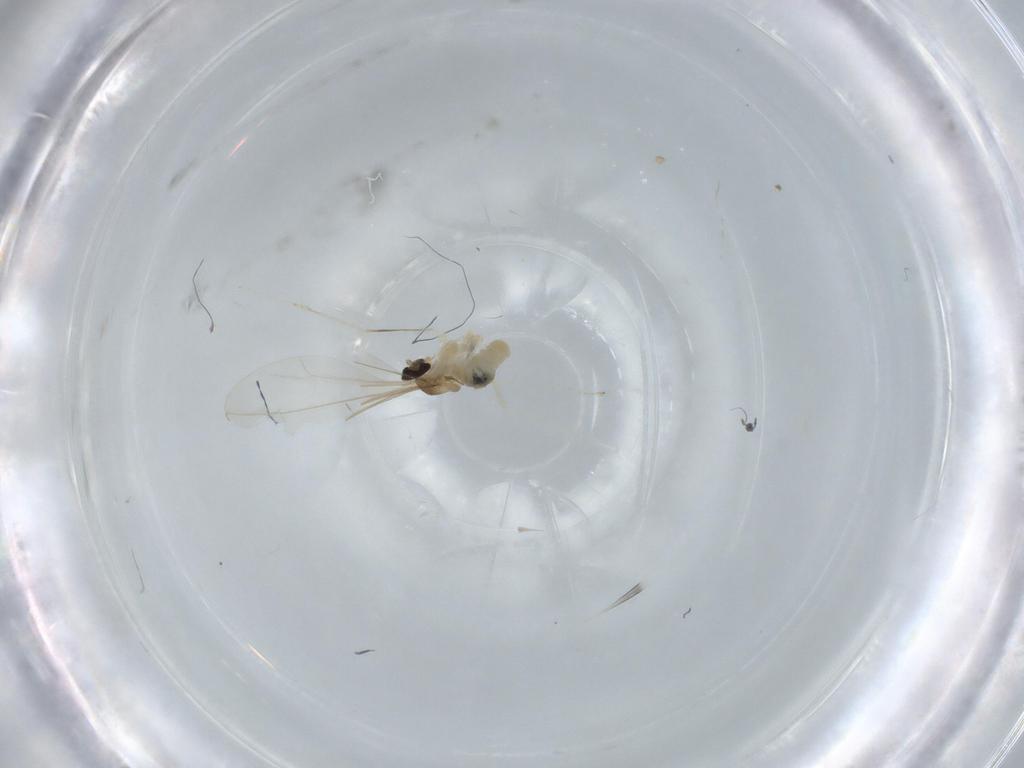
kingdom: Animalia
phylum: Arthropoda
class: Insecta
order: Diptera
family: Cecidomyiidae
